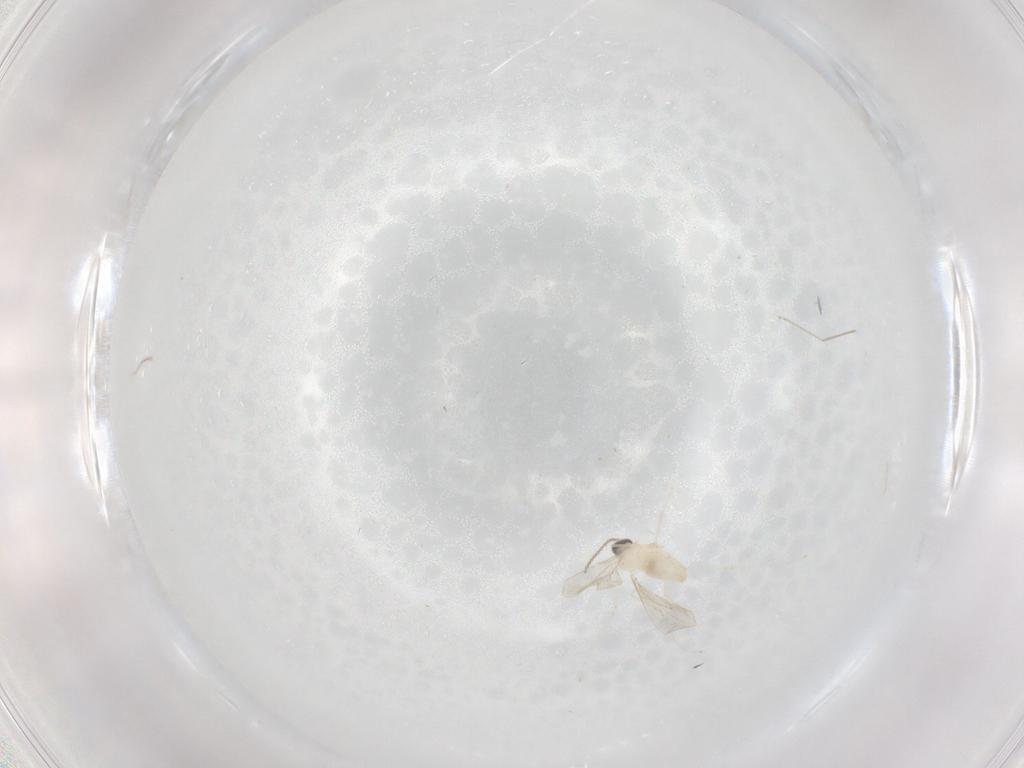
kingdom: Animalia
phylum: Arthropoda
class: Insecta
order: Diptera
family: Cecidomyiidae
